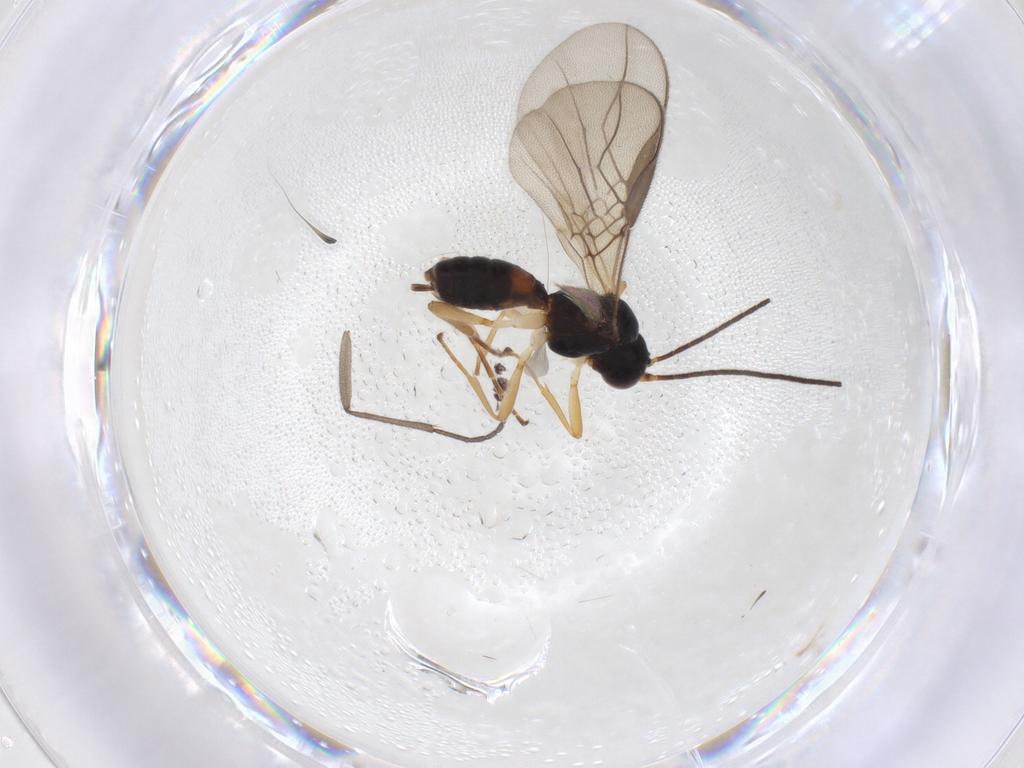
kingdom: Animalia
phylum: Arthropoda
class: Insecta
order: Hymenoptera
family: Braconidae
